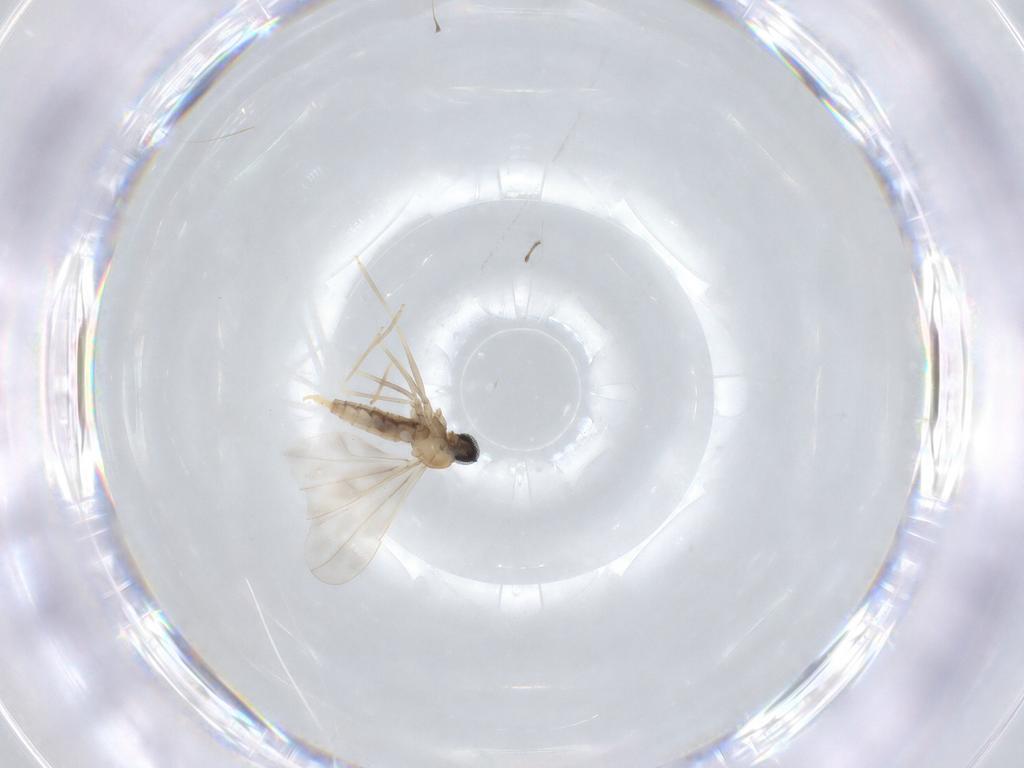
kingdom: Animalia
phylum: Arthropoda
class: Insecta
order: Diptera
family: Cecidomyiidae
